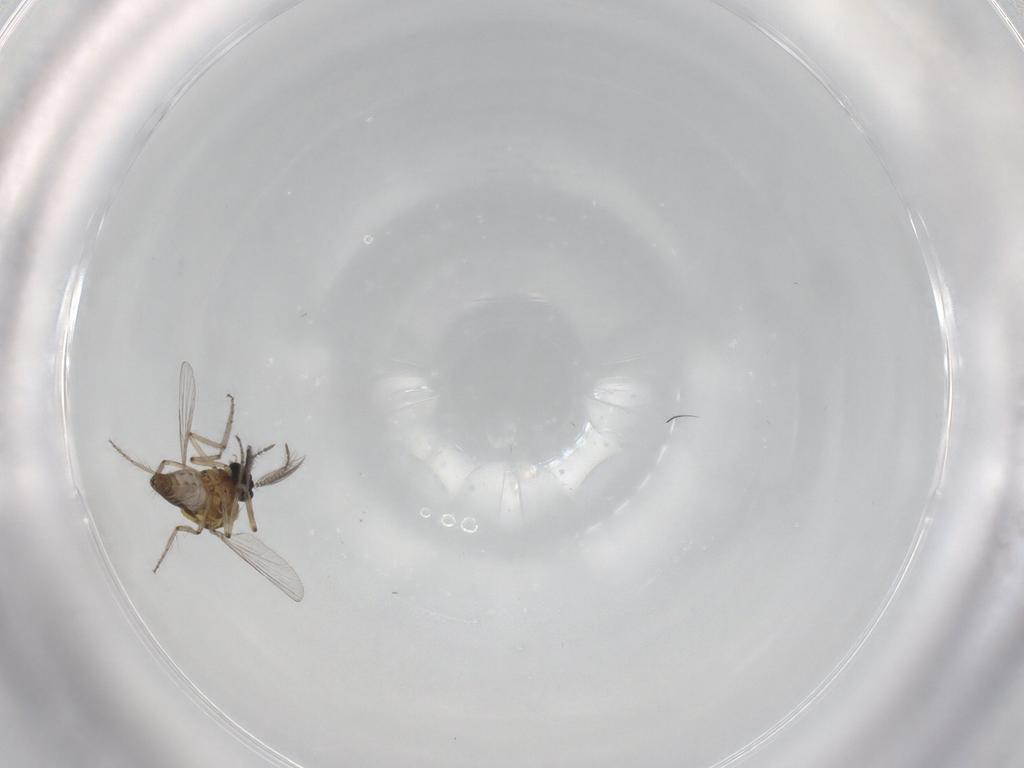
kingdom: Animalia
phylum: Arthropoda
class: Insecta
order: Diptera
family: Ceratopogonidae
